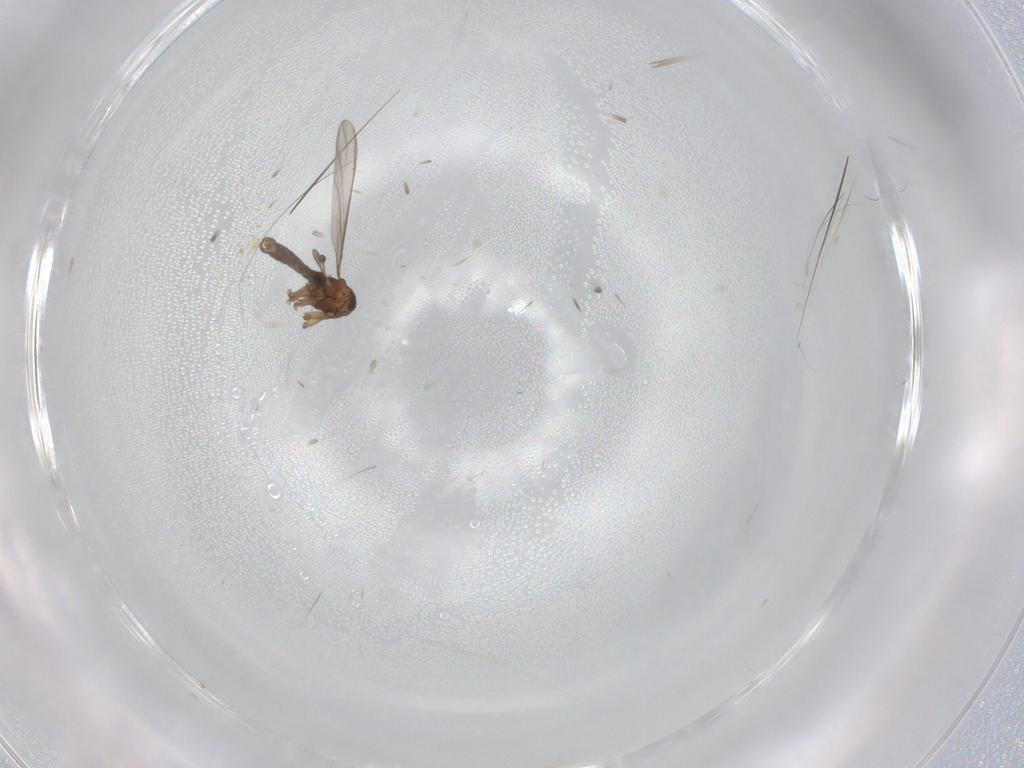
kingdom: Animalia
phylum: Arthropoda
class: Insecta
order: Diptera
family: Sciaridae
